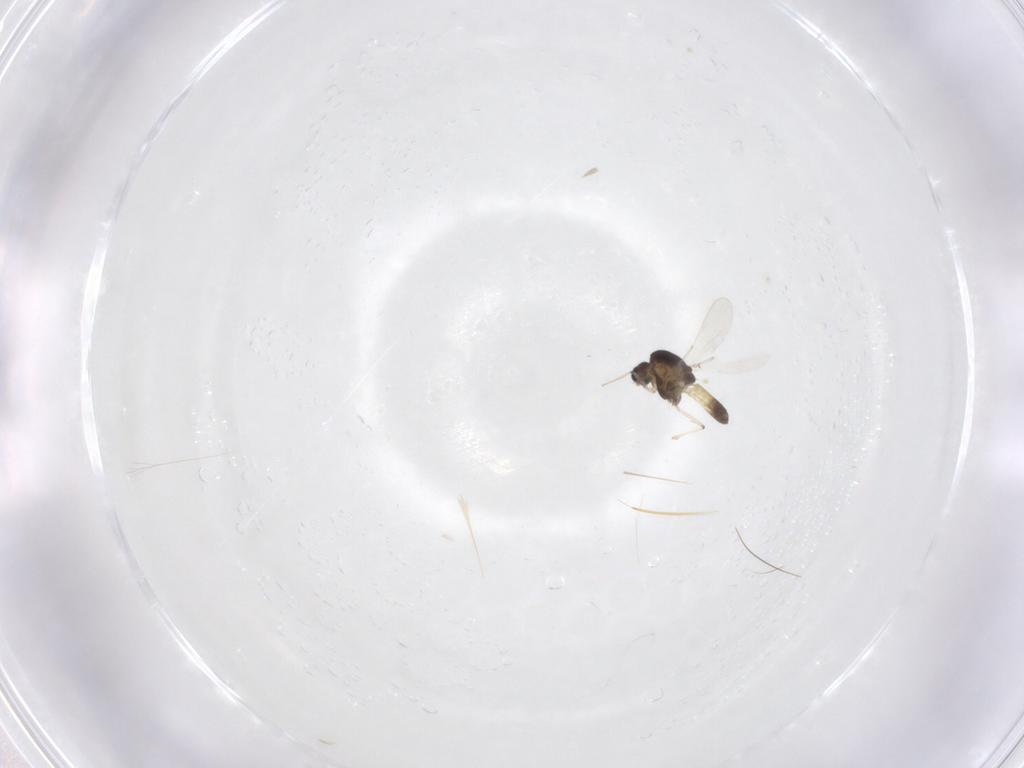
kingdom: Animalia
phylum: Arthropoda
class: Insecta
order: Diptera
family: Chironomidae
